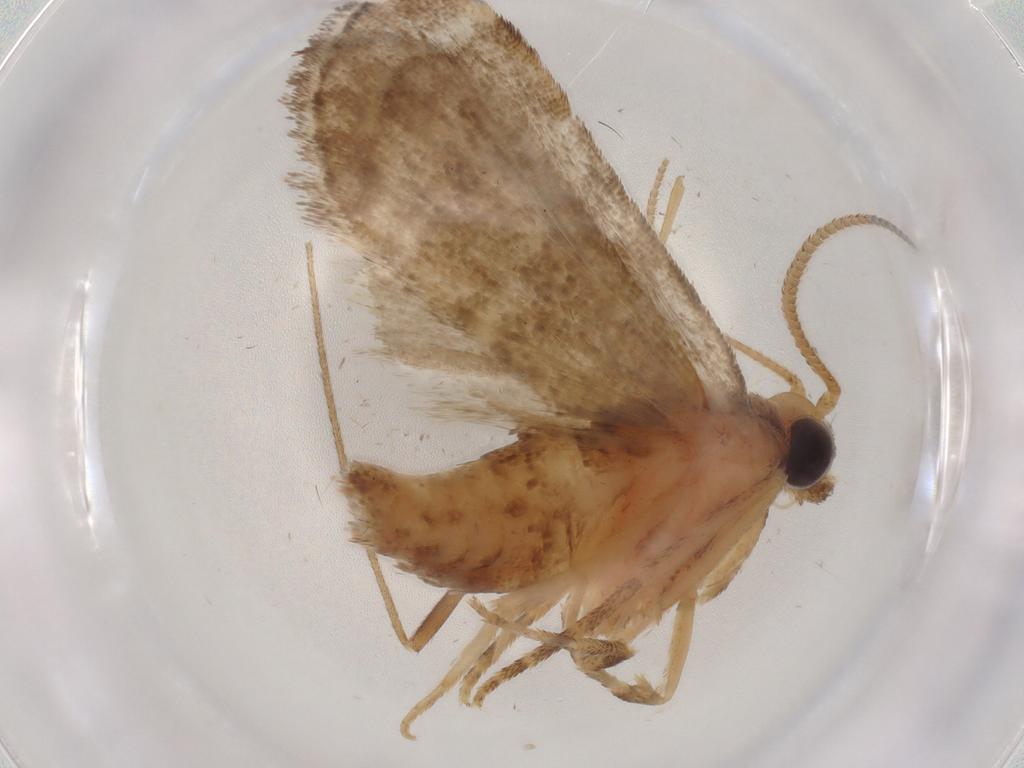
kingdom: Animalia
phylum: Arthropoda
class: Insecta
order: Lepidoptera
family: Pyralidae
